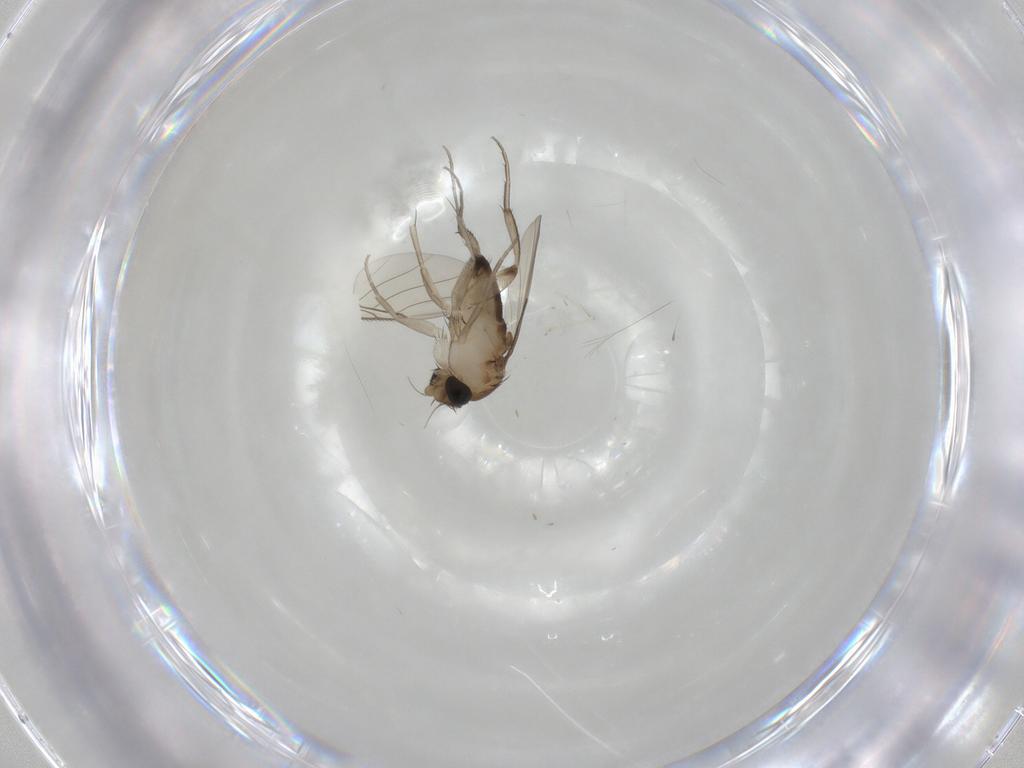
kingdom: Animalia
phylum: Arthropoda
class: Insecta
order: Diptera
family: Phoridae
